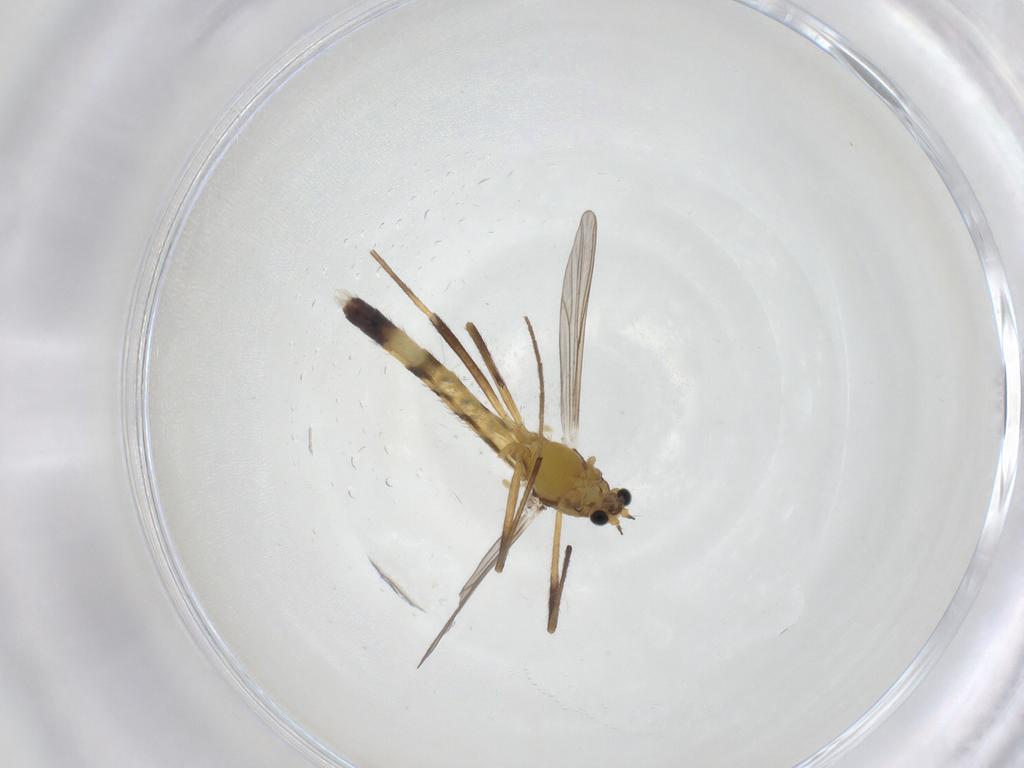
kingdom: Animalia
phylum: Arthropoda
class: Insecta
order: Diptera
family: Chironomidae
